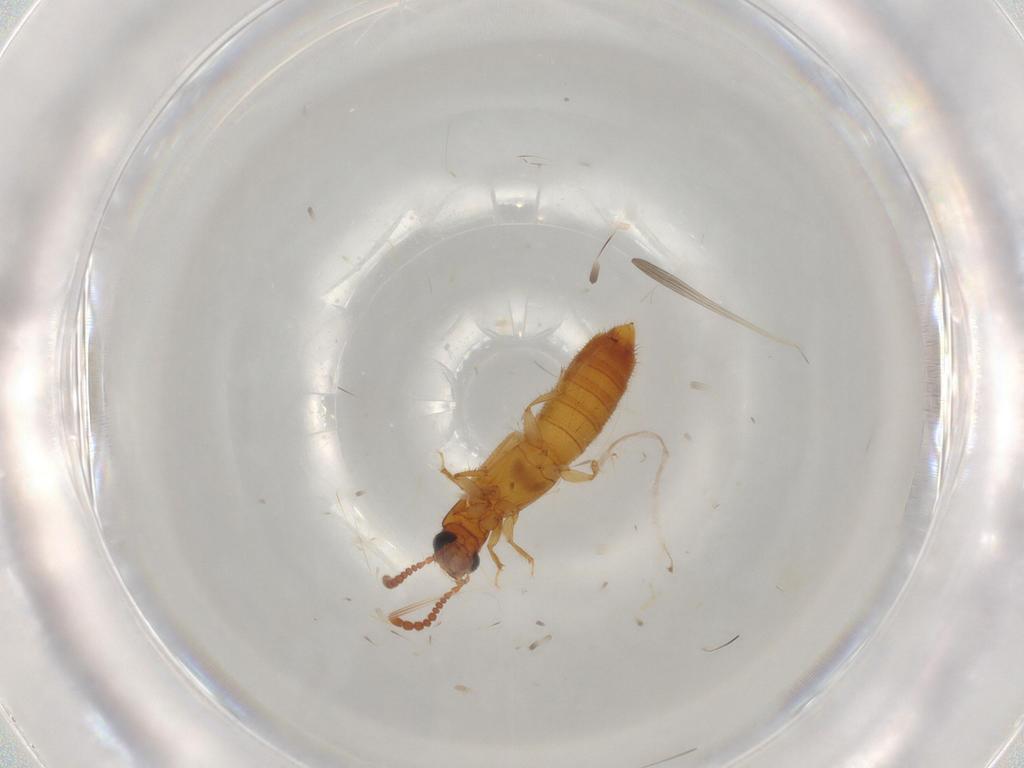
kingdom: Animalia
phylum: Arthropoda
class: Insecta
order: Coleoptera
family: Staphylinidae
